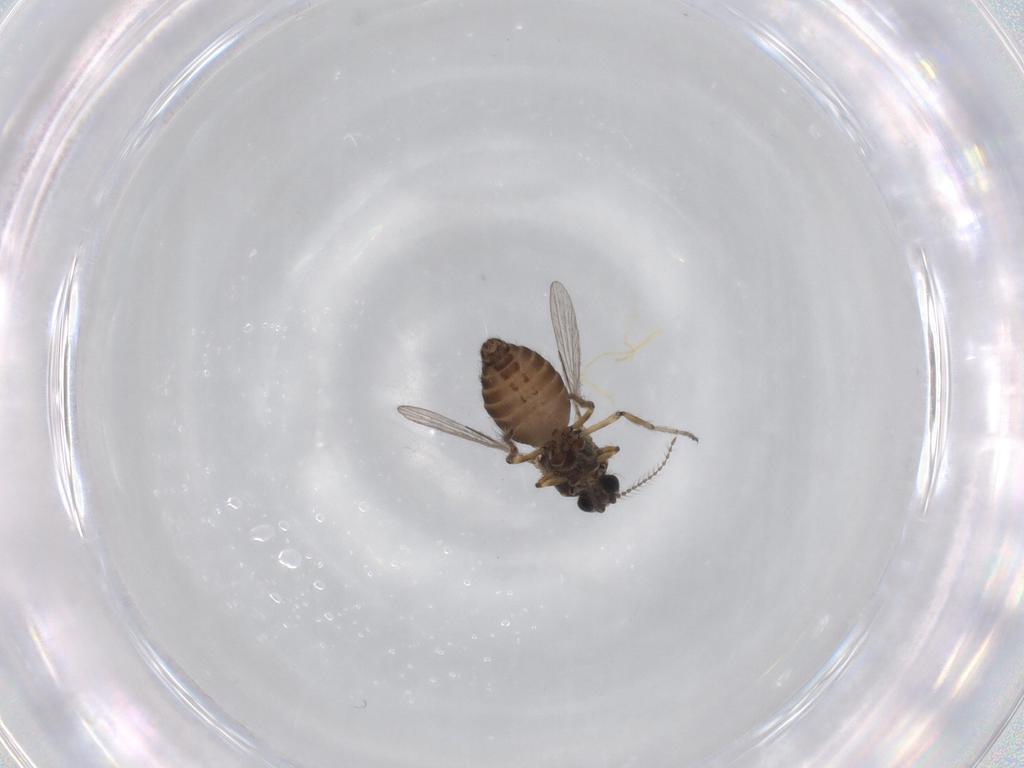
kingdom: Animalia
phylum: Arthropoda
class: Insecta
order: Diptera
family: Ceratopogonidae
